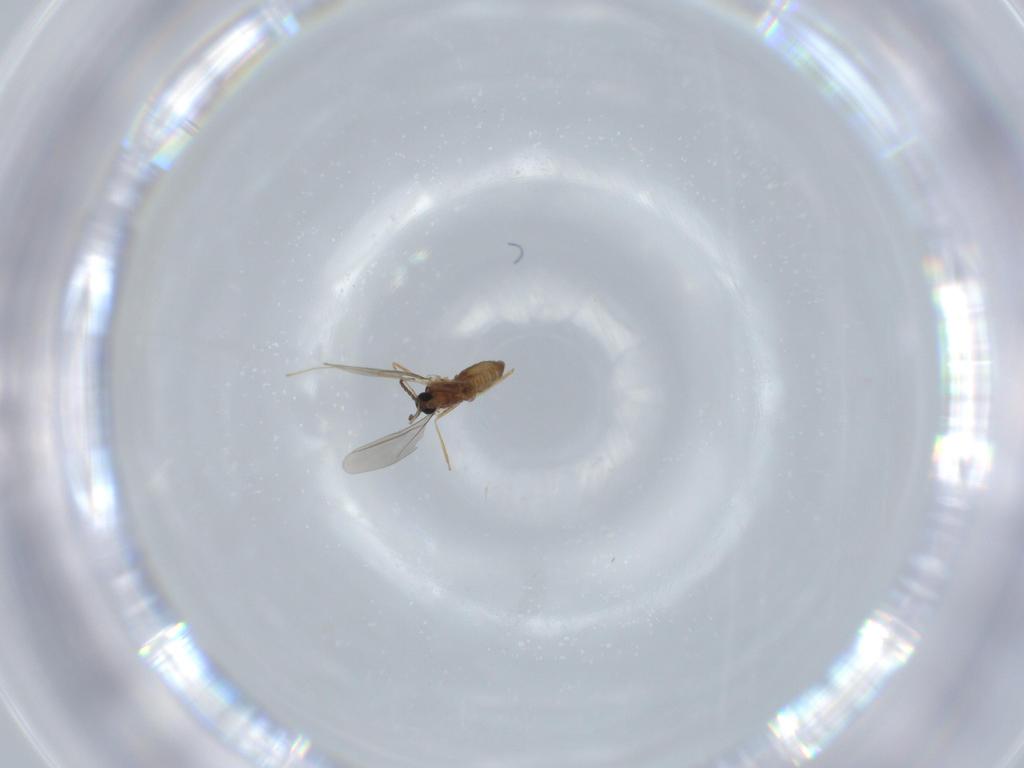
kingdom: Animalia
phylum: Arthropoda
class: Insecta
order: Diptera
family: Cecidomyiidae
